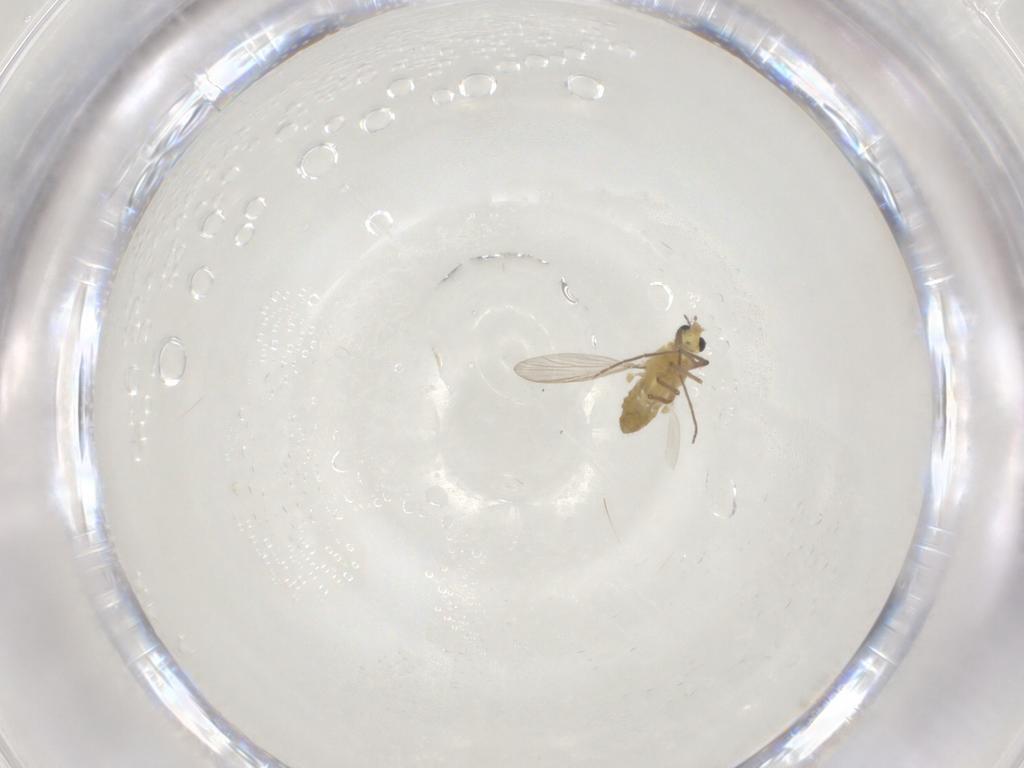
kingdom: Animalia
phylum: Arthropoda
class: Insecta
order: Diptera
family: Chironomidae
